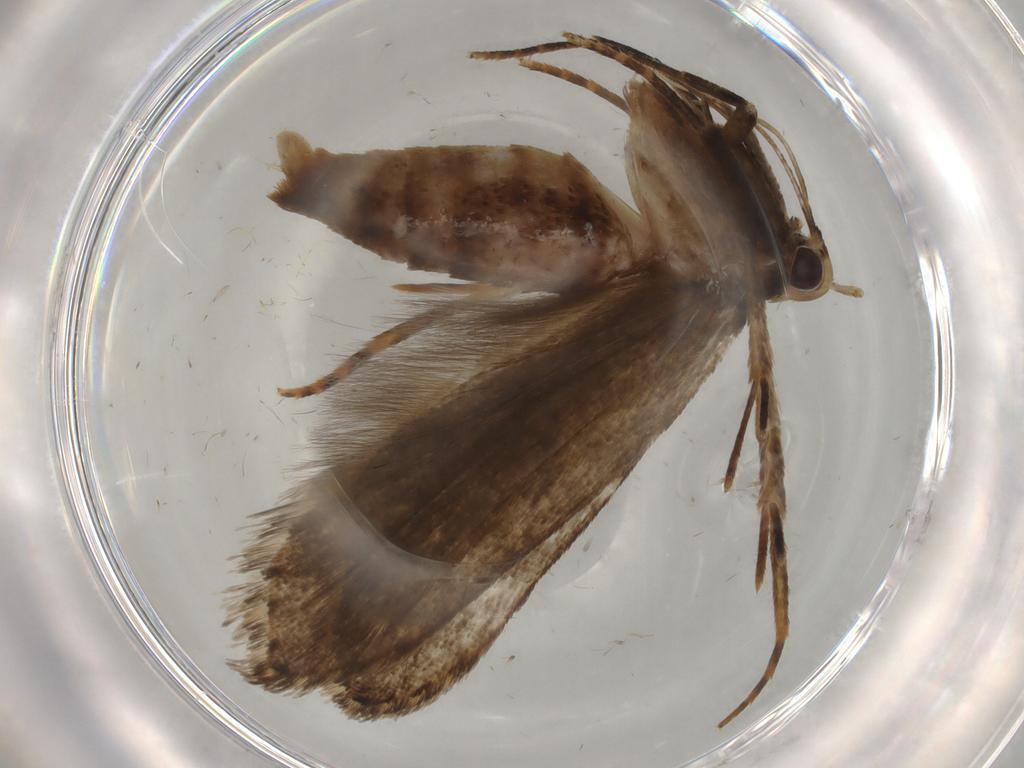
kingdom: Animalia
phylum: Arthropoda
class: Insecta
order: Lepidoptera
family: Cosmopterigidae
